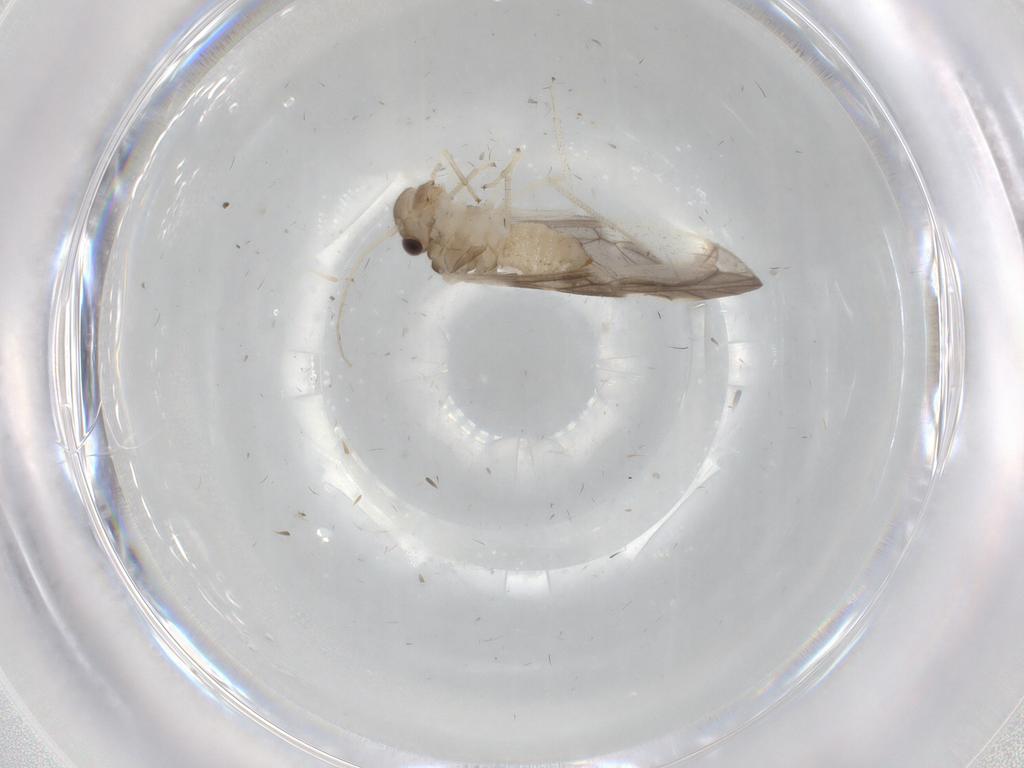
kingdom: Animalia
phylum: Arthropoda
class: Insecta
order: Psocodea
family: Caeciliusidae
